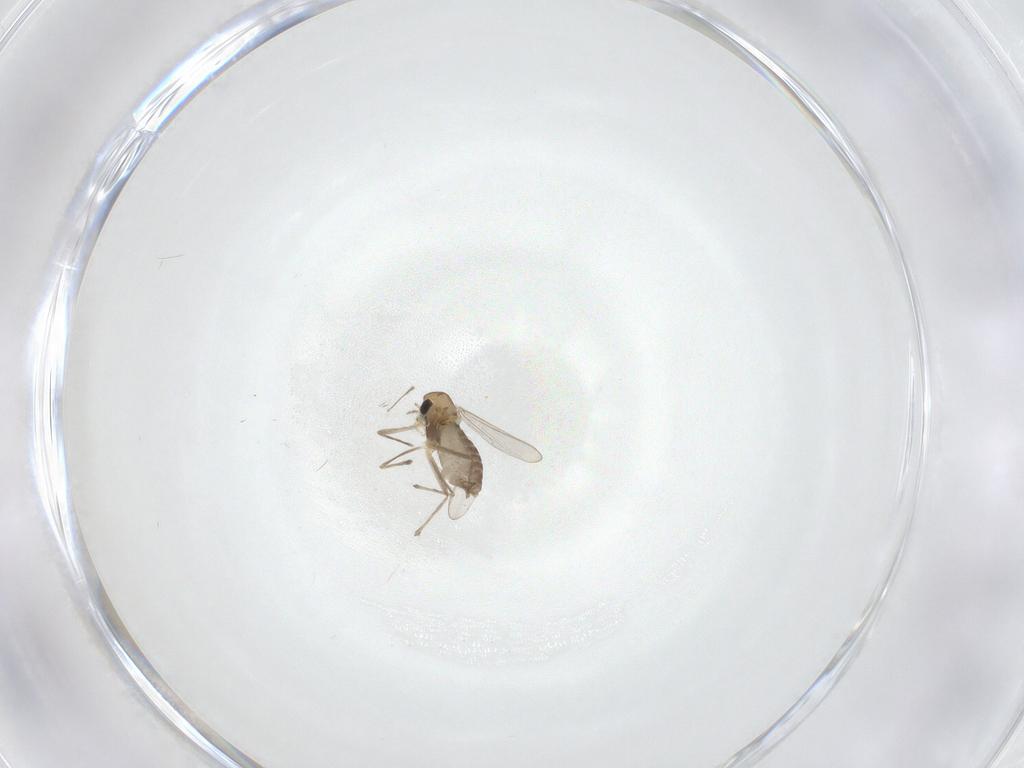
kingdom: Animalia
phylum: Arthropoda
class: Insecta
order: Diptera
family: Chironomidae
